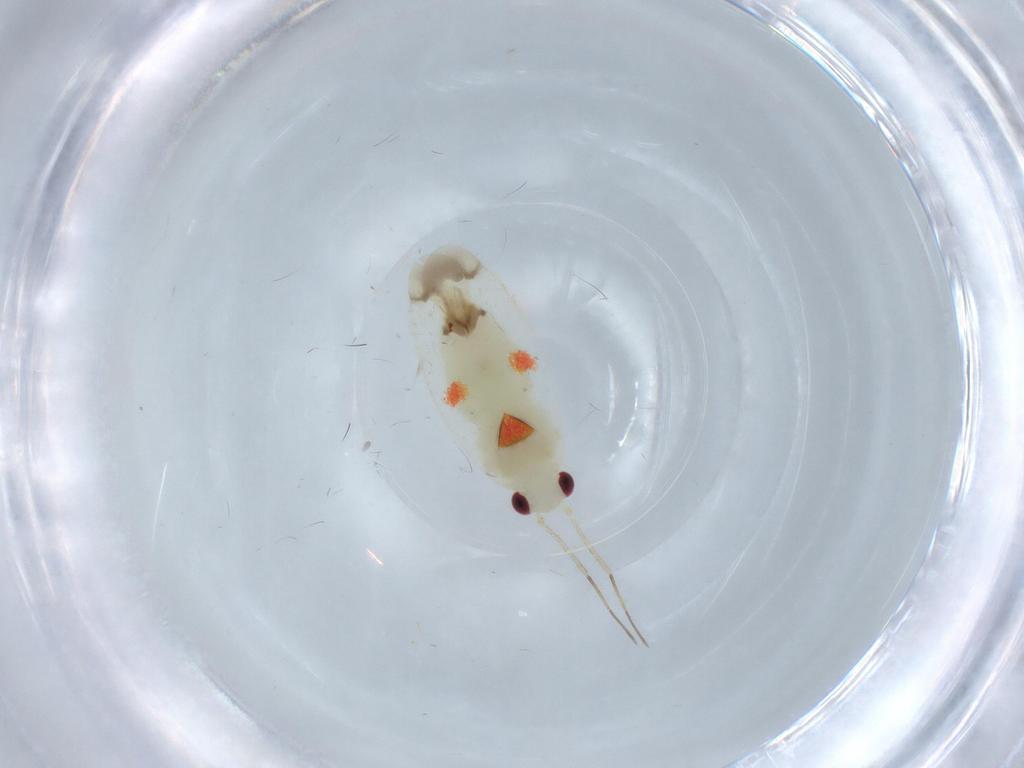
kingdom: Animalia
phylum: Arthropoda
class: Insecta
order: Hemiptera
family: Miridae
